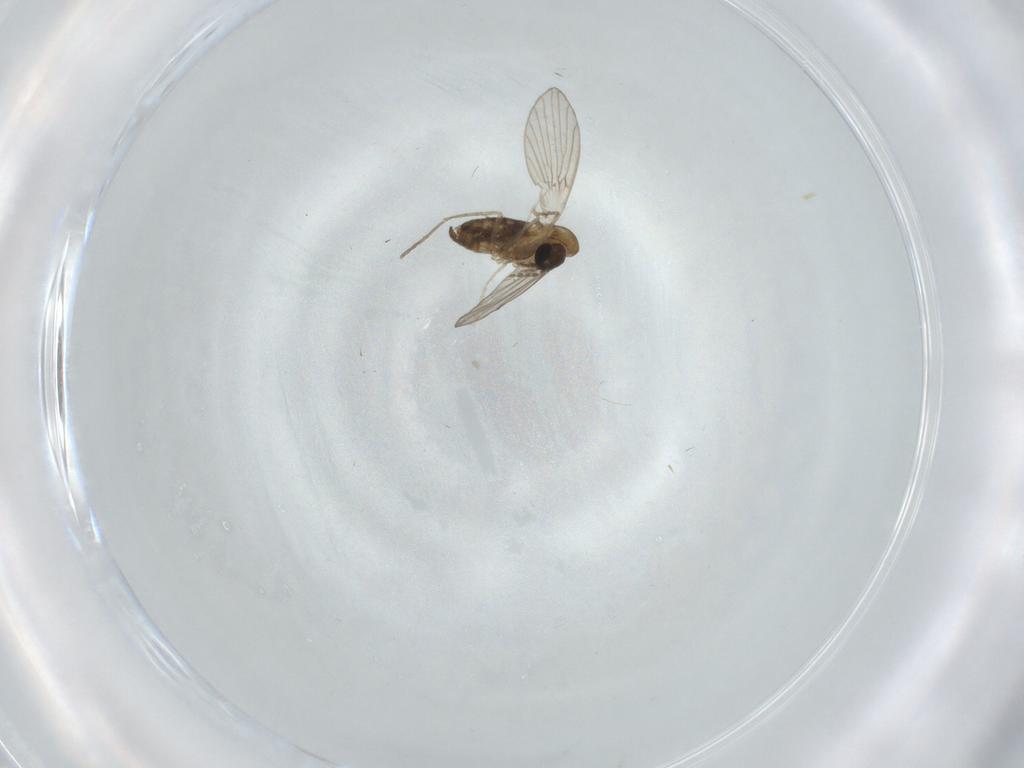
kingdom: Animalia
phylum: Arthropoda
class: Insecta
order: Diptera
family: Cecidomyiidae
